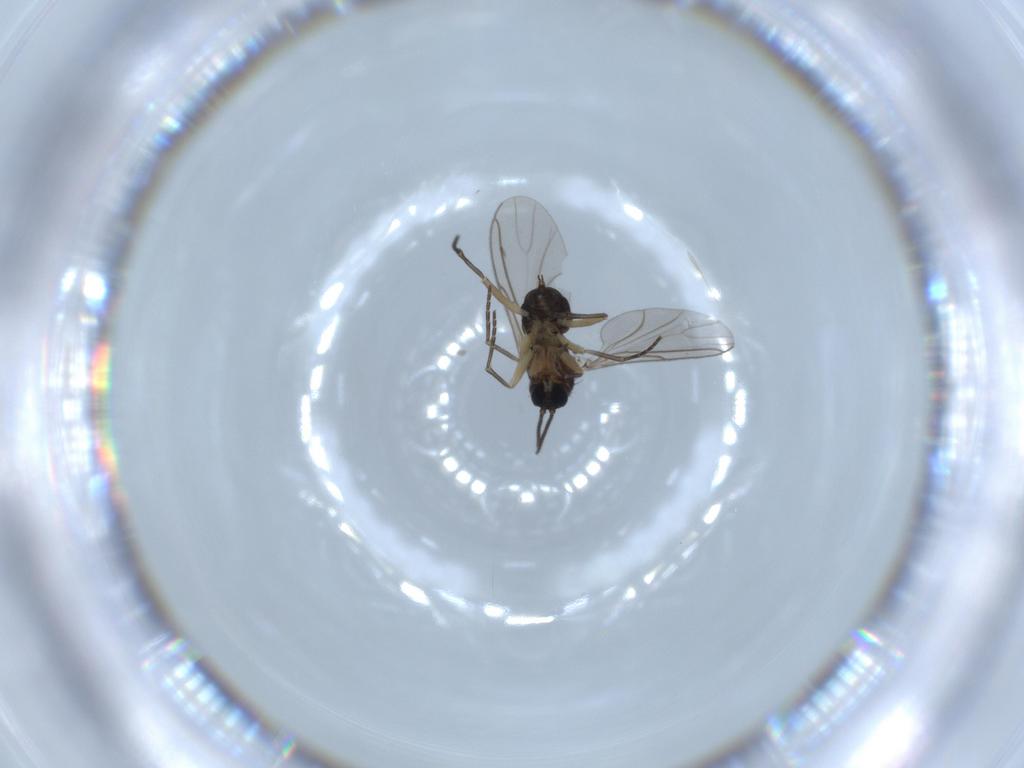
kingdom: Animalia
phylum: Arthropoda
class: Insecta
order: Diptera
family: Sciaridae
